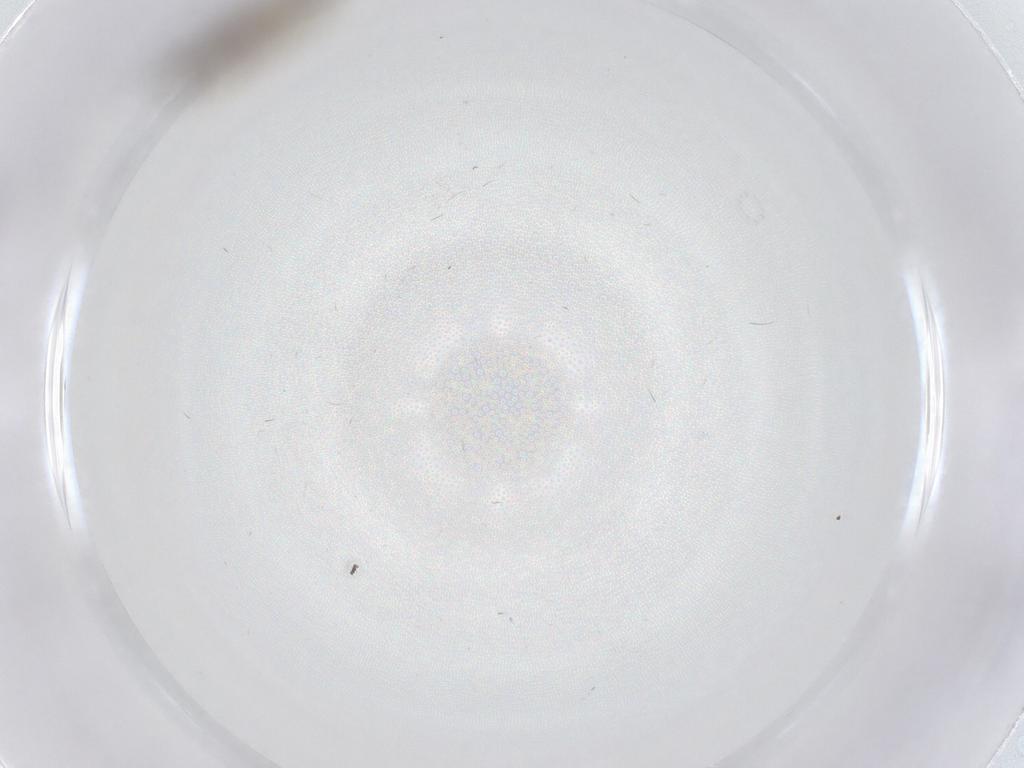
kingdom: Animalia
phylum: Arthropoda
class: Insecta
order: Diptera
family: Cecidomyiidae
